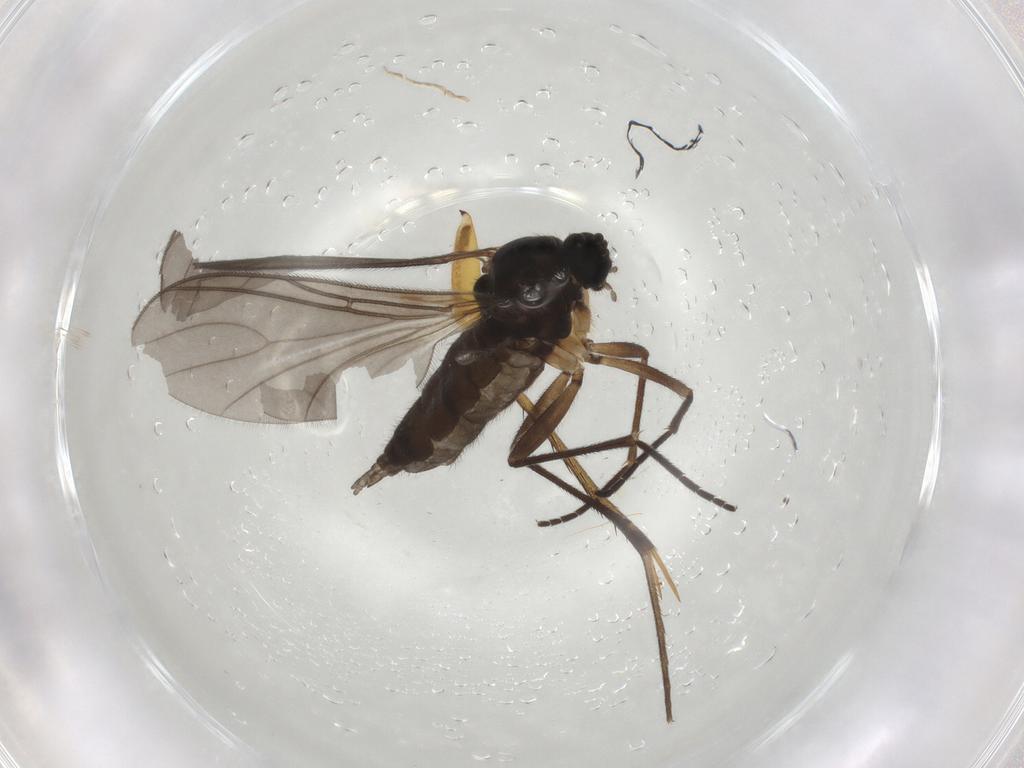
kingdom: Animalia
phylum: Arthropoda
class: Insecta
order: Diptera
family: Sciaridae
